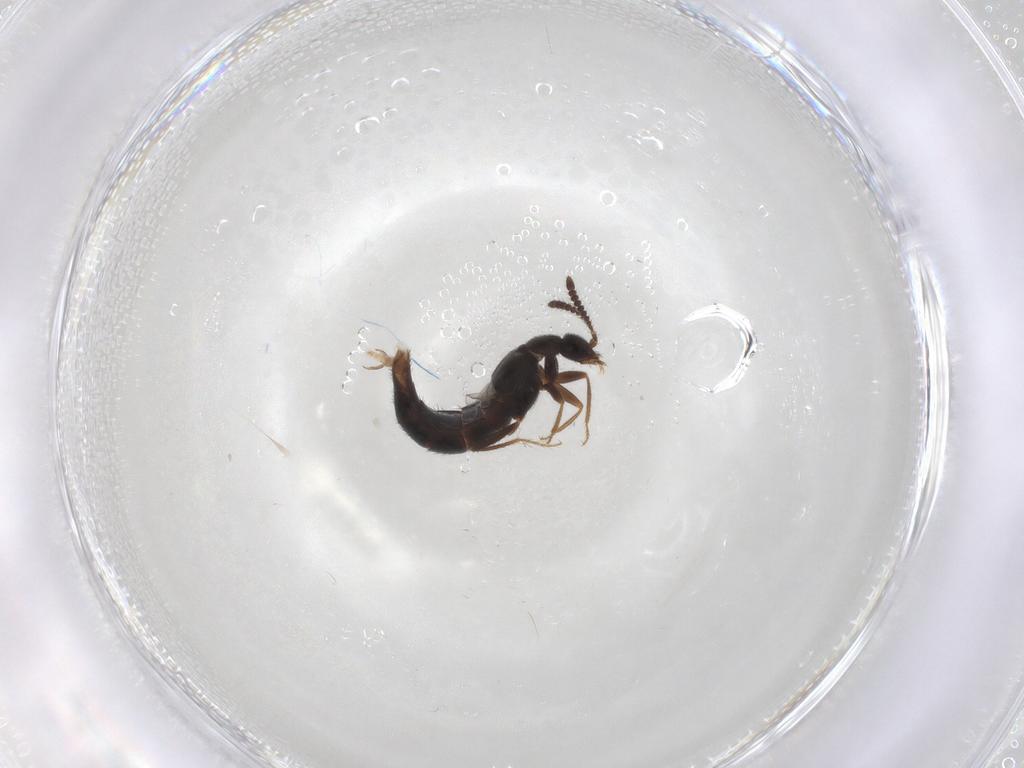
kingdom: Animalia
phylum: Arthropoda
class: Insecta
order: Coleoptera
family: Staphylinidae
